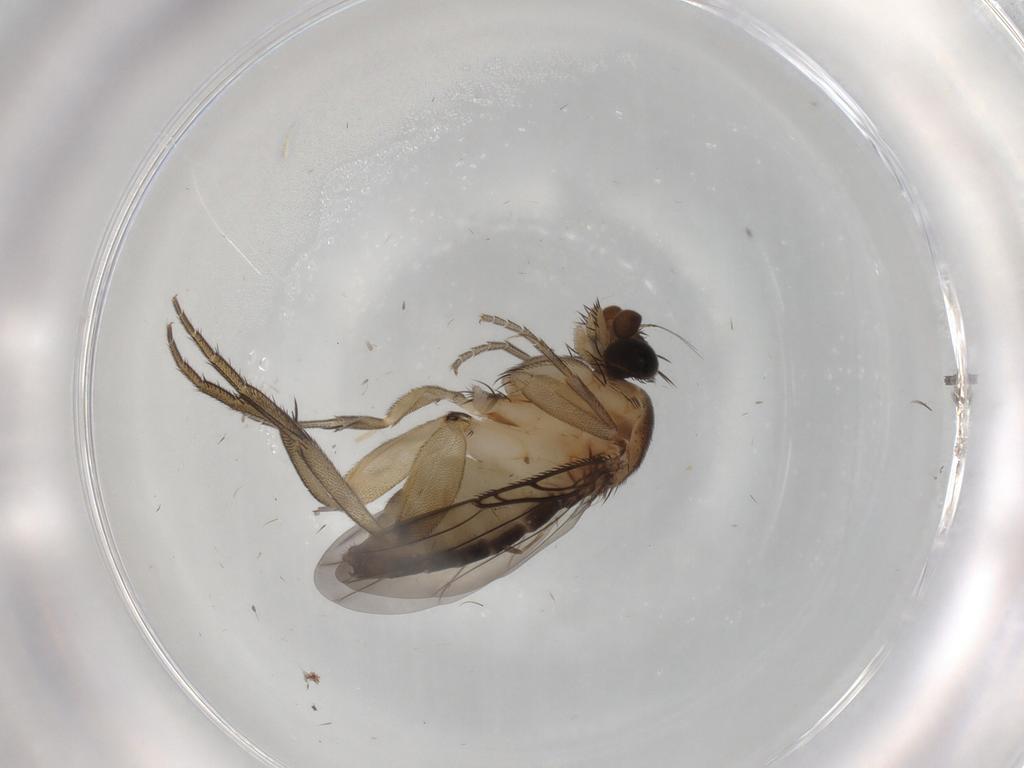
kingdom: Animalia
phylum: Arthropoda
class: Insecta
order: Diptera
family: Phoridae
